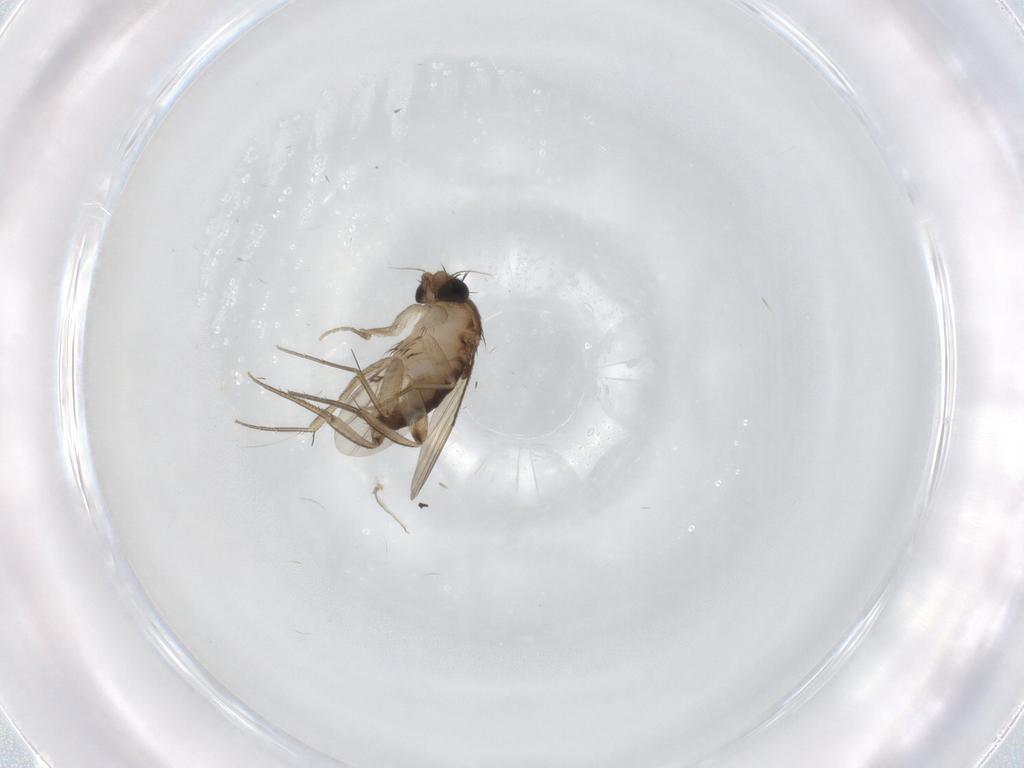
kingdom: Animalia
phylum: Arthropoda
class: Insecta
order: Diptera
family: Phoridae
